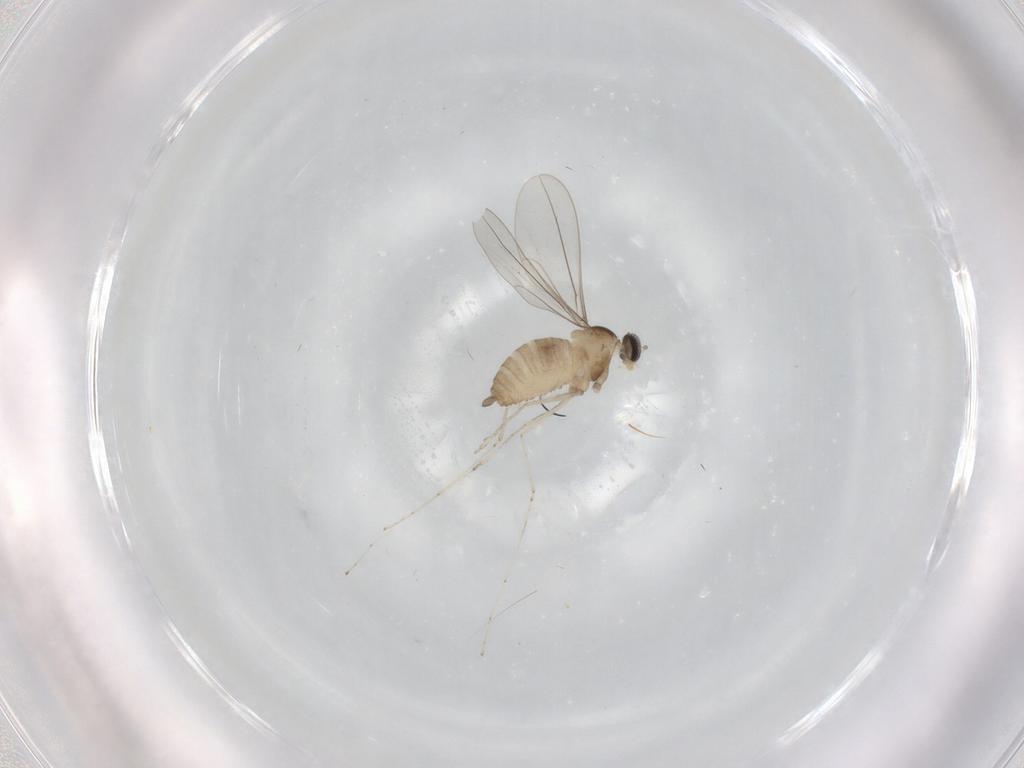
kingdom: Animalia
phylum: Arthropoda
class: Insecta
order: Diptera
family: Cecidomyiidae
